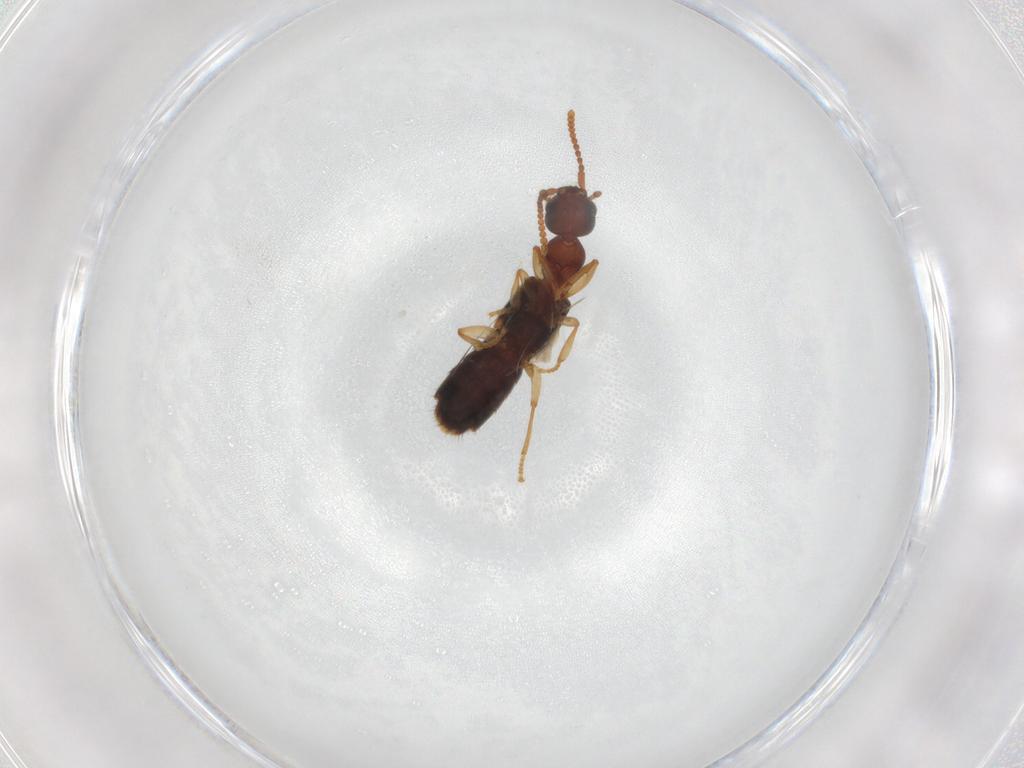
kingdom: Animalia
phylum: Arthropoda
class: Insecta
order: Coleoptera
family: Staphylinidae
